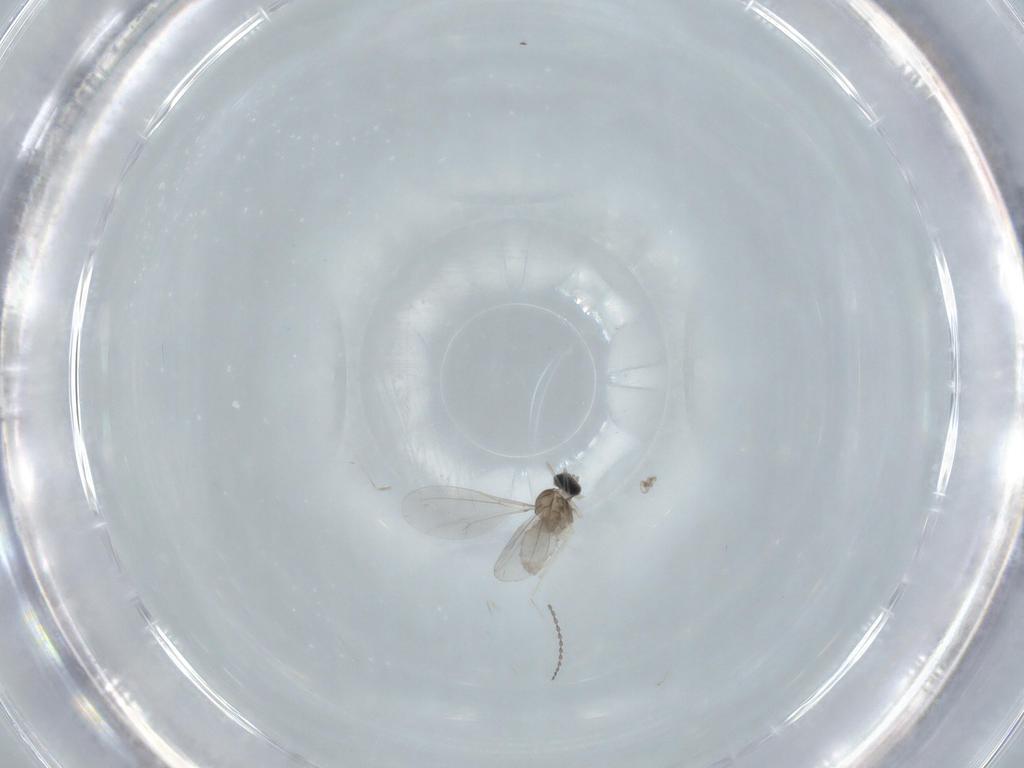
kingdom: Animalia
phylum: Arthropoda
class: Insecta
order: Diptera
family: Cecidomyiidae
